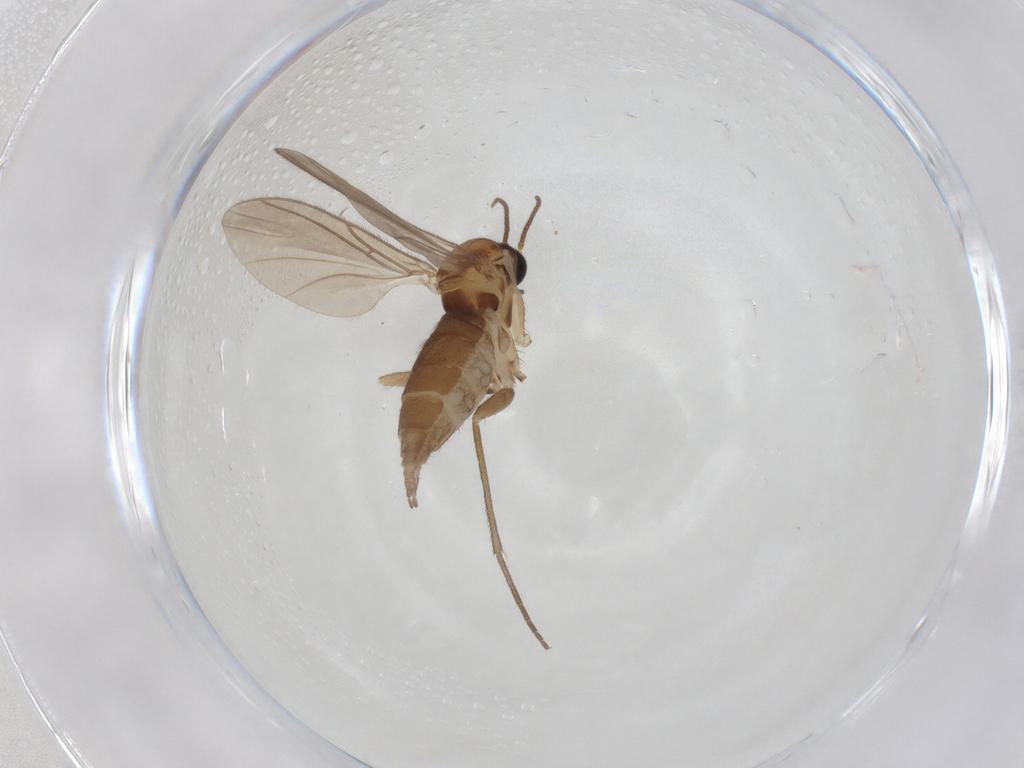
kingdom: Animalia
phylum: Arthropoda
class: Insecta
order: Diptera
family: Sciaridae
